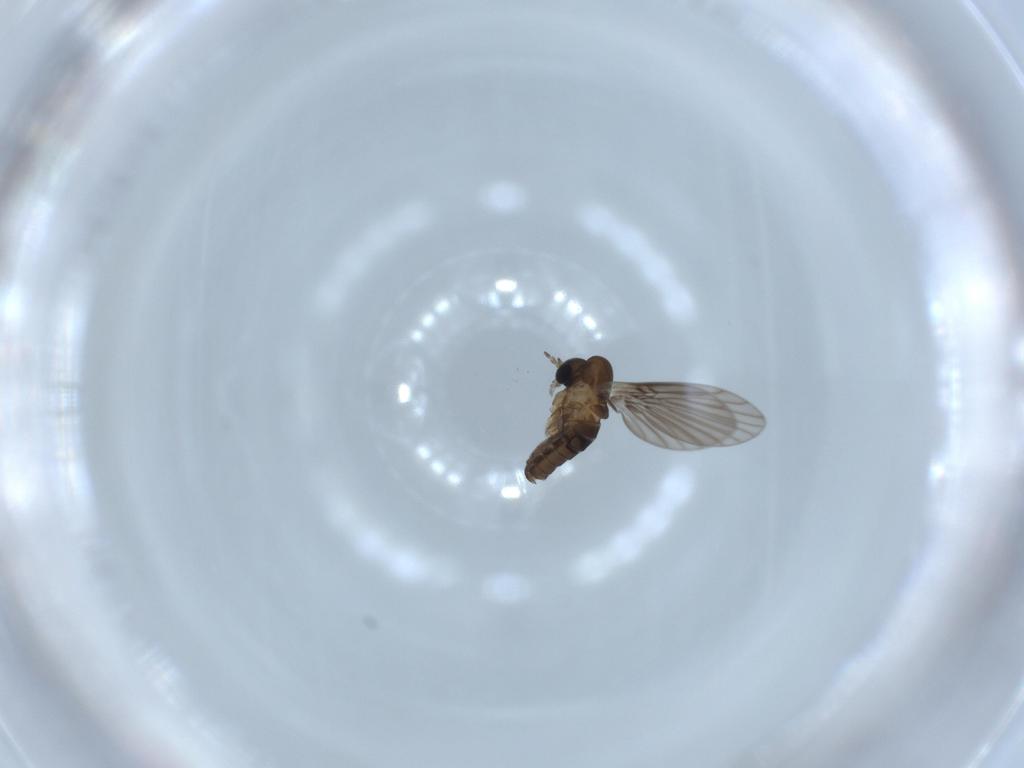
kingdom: Animalia
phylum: Arthropoda
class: Insecta
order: Diptera
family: Psychodidae
